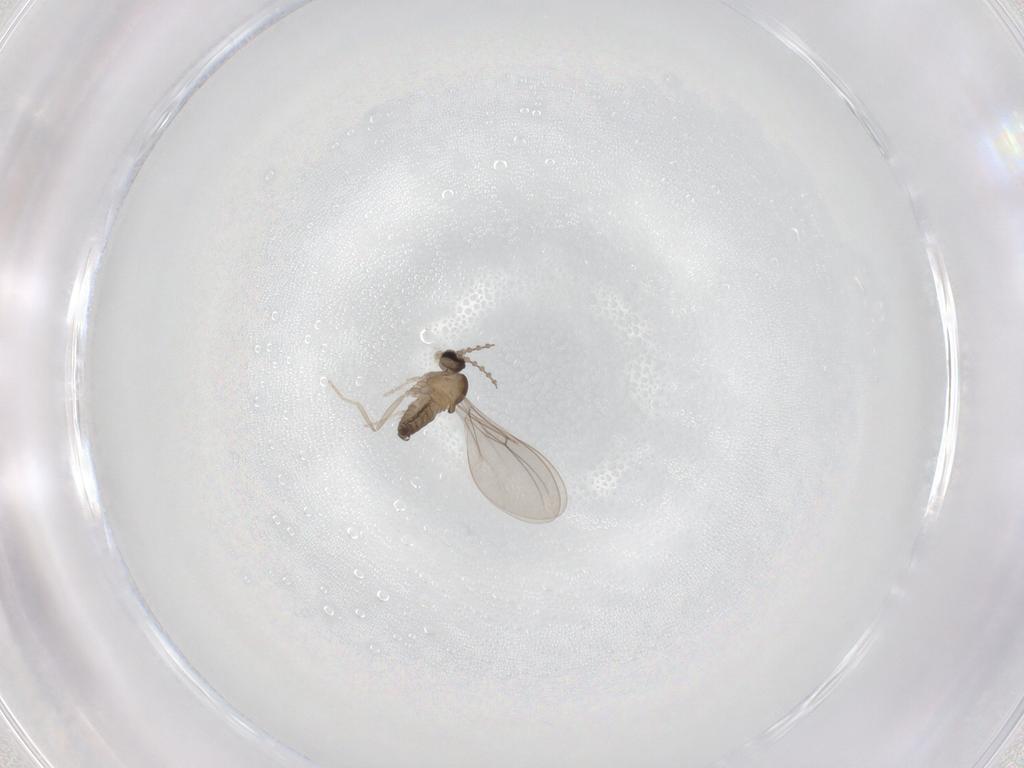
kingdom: Animalia
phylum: Arthropoda
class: Insecta
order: Diptera
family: Cecidomyiidae
